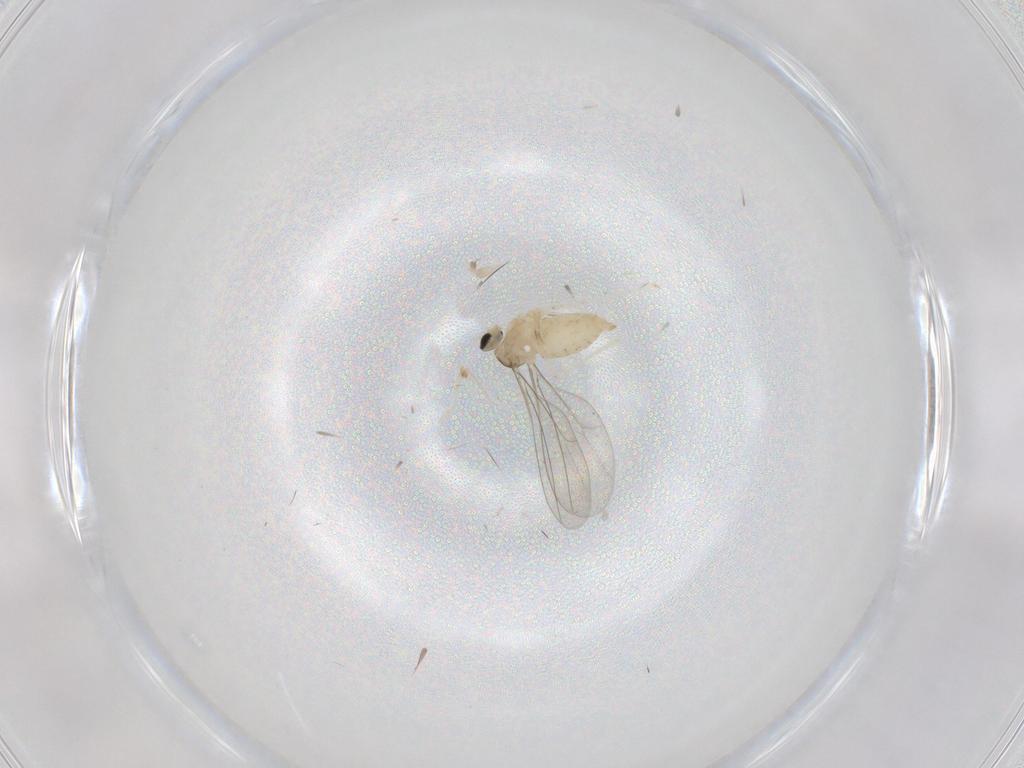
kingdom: Animalia
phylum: Arthropoda
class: Insecta
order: Diptera
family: Cecidomyiidae
